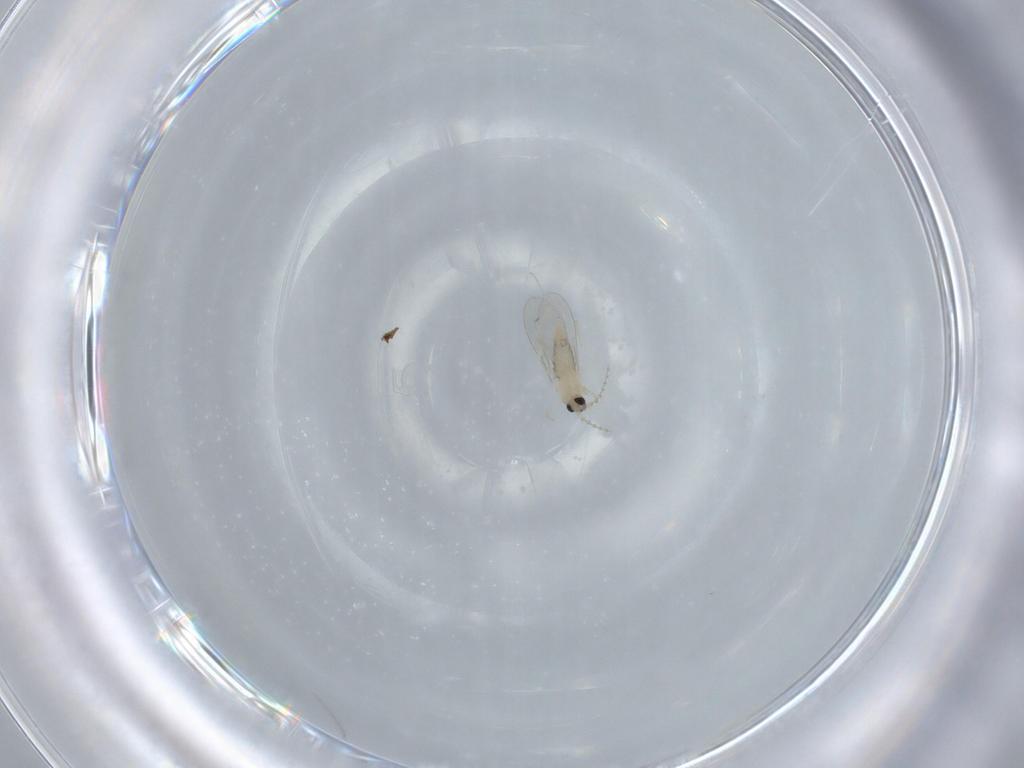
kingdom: Animalia
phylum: Arthropoda
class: Insecta
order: Diptera
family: Cecidomyiidae
